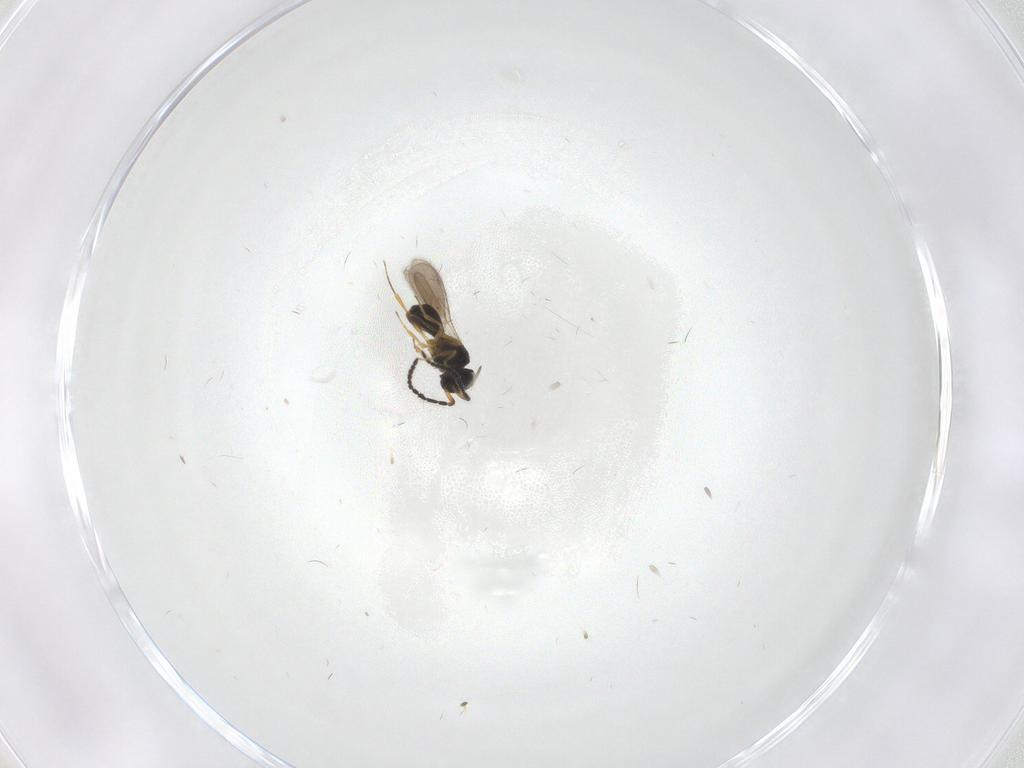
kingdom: Animalia
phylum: Arthropoda
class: Insecta
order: Hymenoptera
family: Scelionidae
